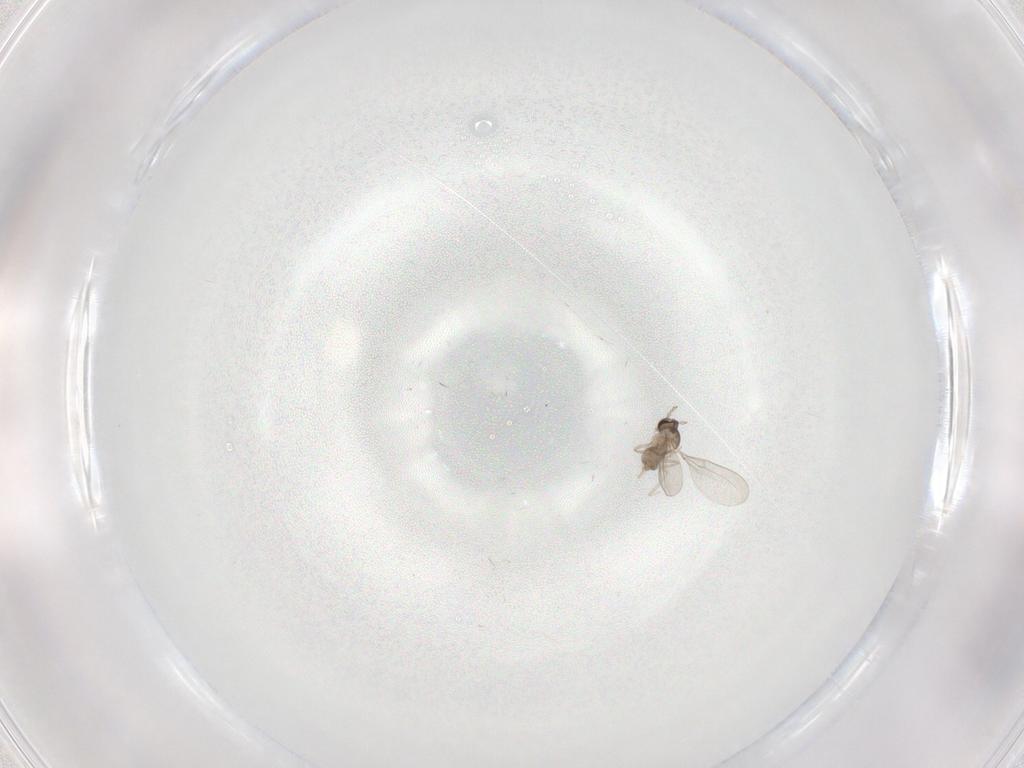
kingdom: Animalia
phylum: Arthropoda
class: Insecta
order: Diptera
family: Cecidomyiidae
